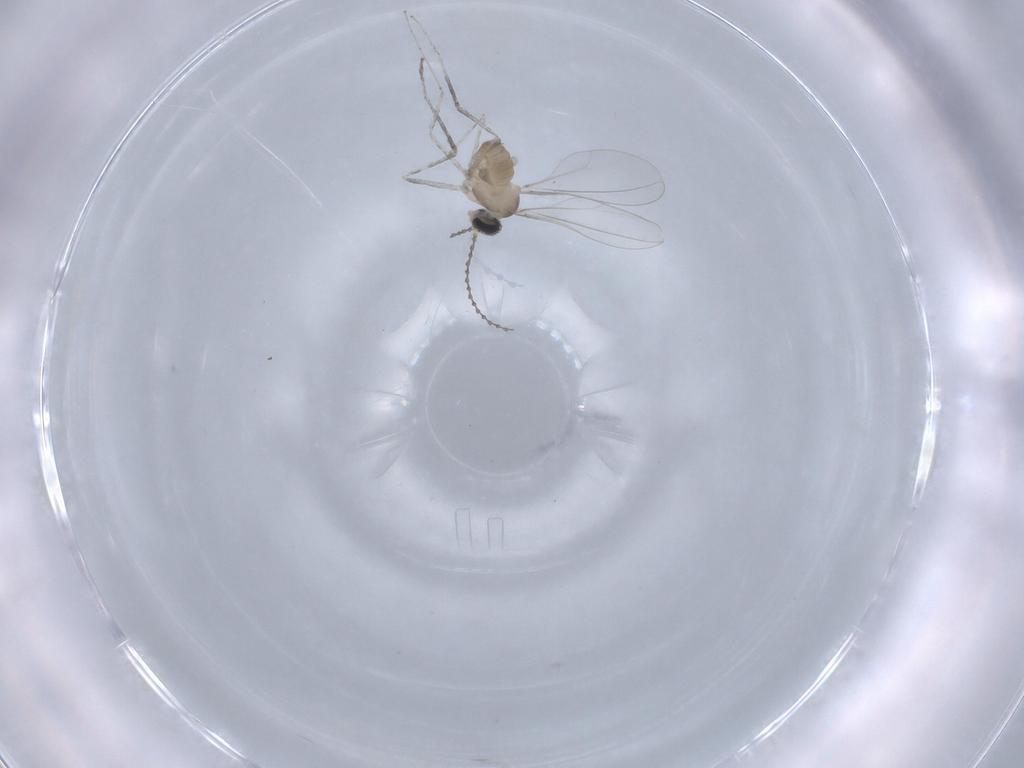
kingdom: Animalia
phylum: Arthropoda
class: Insecta
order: Diptera
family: Cecidomyiidae
